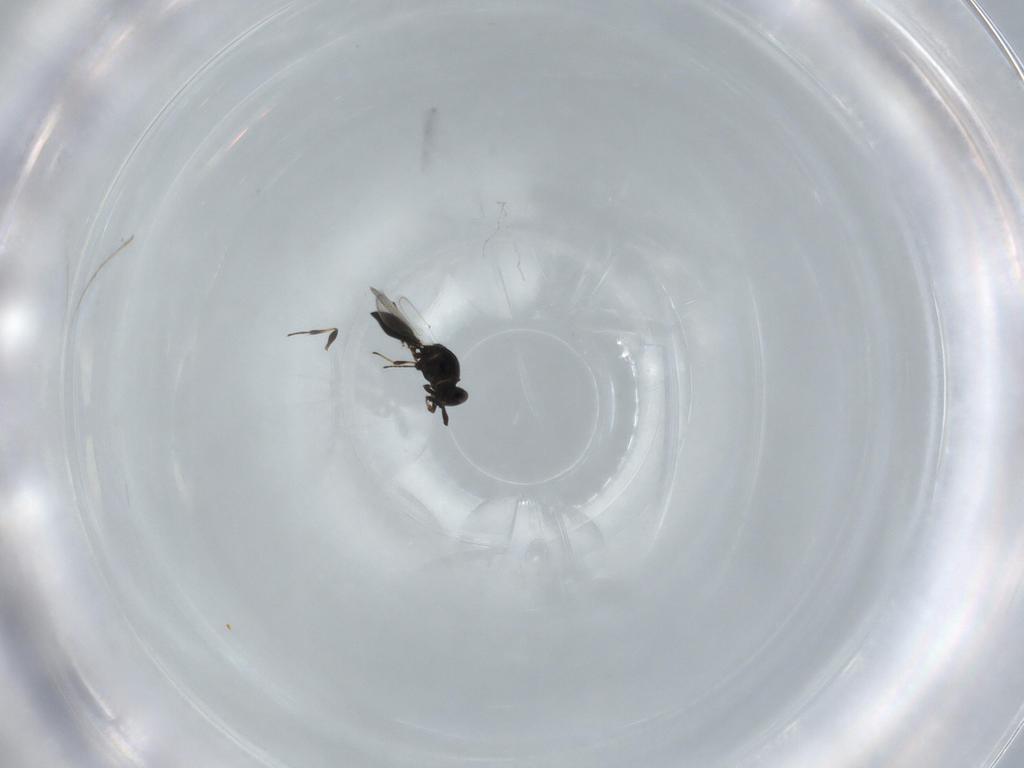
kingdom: Animalia
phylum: Arthropoda
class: Insecta
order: Hymenoptera
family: Platygastridae
